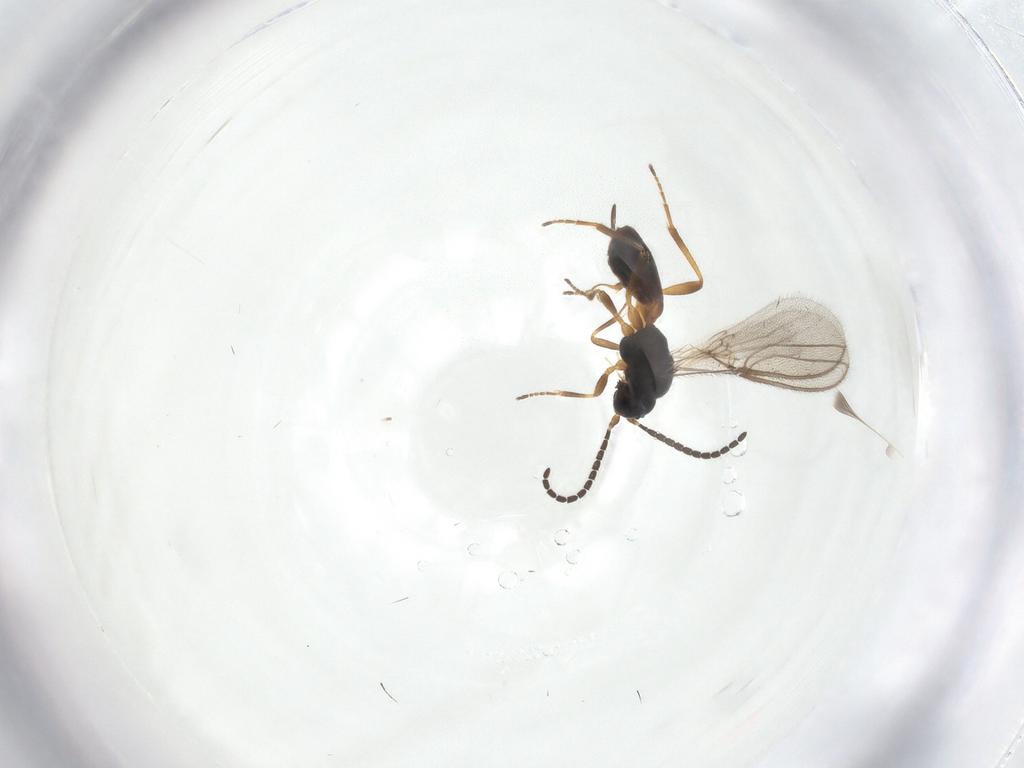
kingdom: Animalia
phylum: Arthropoda
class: Insecta
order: Hymenoptera
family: Braconidae
